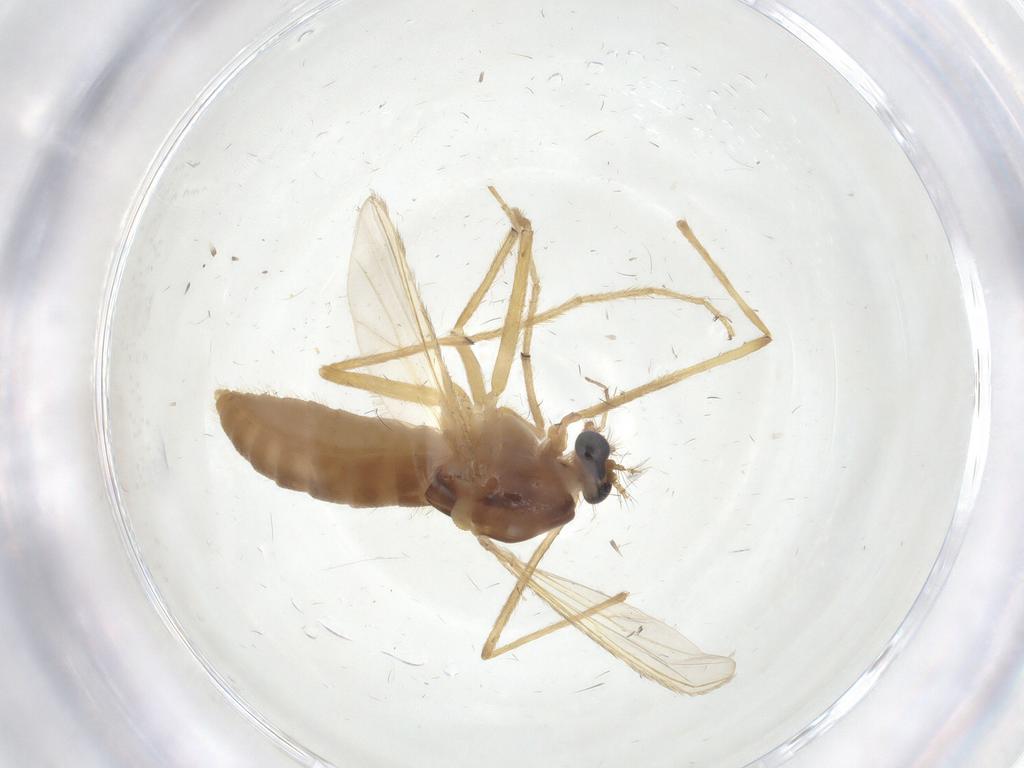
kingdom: Animalia
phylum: Arthropoda
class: Insecta
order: Diptera
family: Chironomidae
